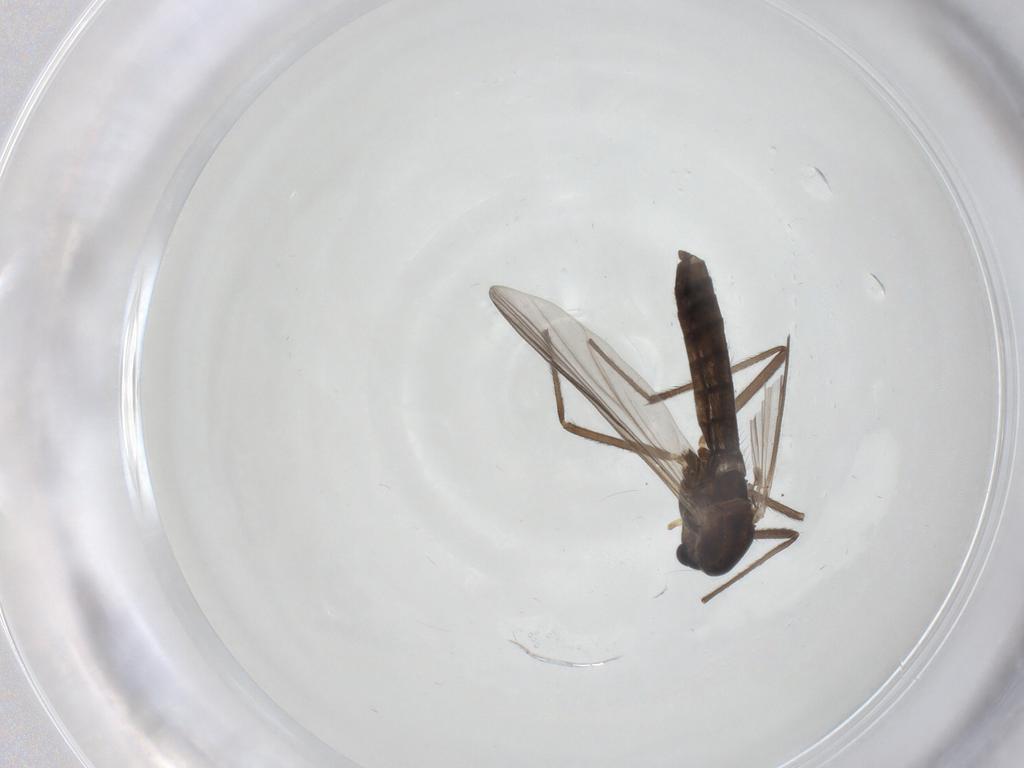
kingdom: Animalia
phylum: Arthropoda
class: Insecta
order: Diptera
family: Chironomidae
